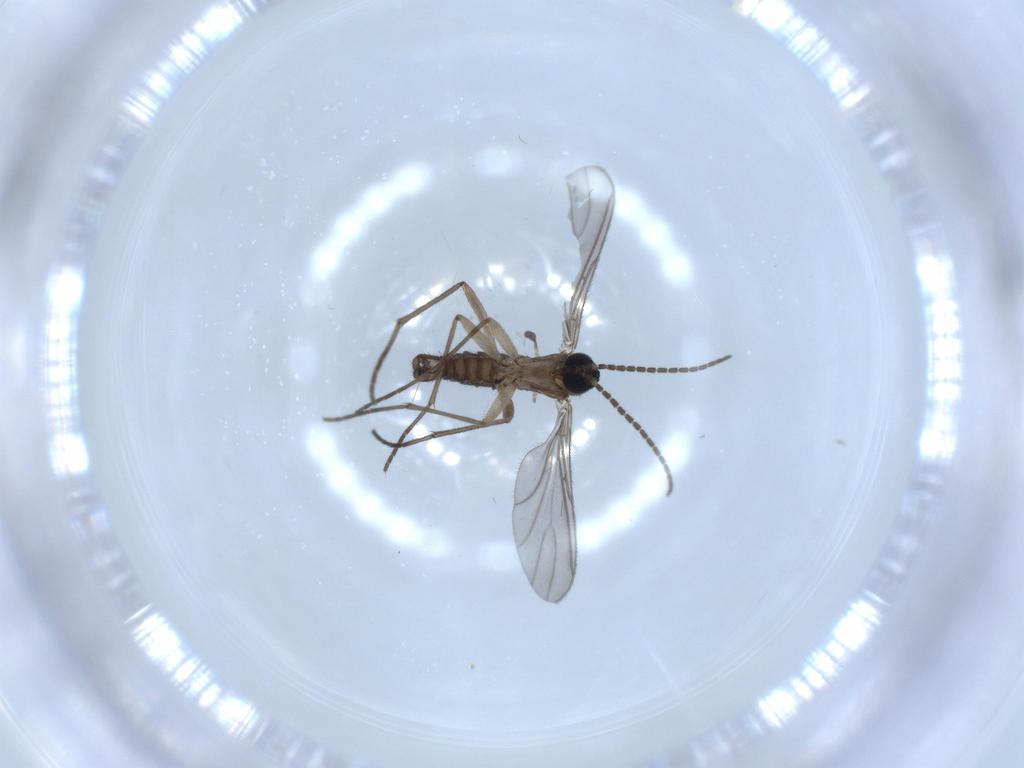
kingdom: Animalia
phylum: Arthropoda
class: Insecta
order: Diptera
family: Sciaridae
